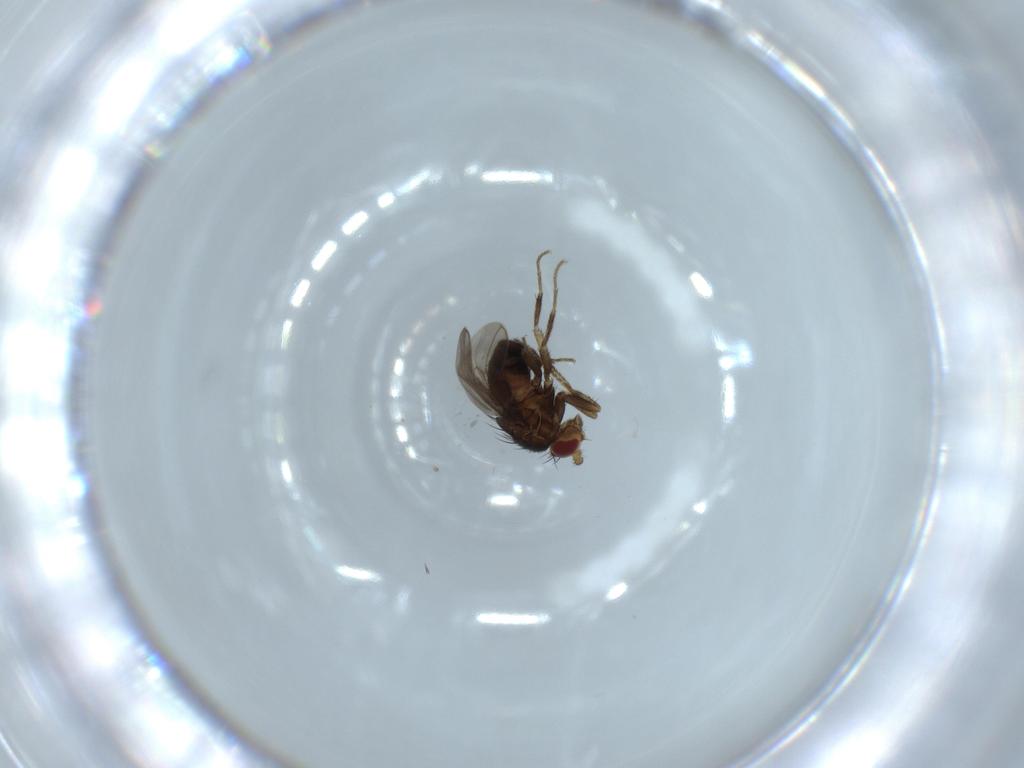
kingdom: Animalia
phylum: Arthropoda
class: Insecta
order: Diptera
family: Sphaeroceridae
